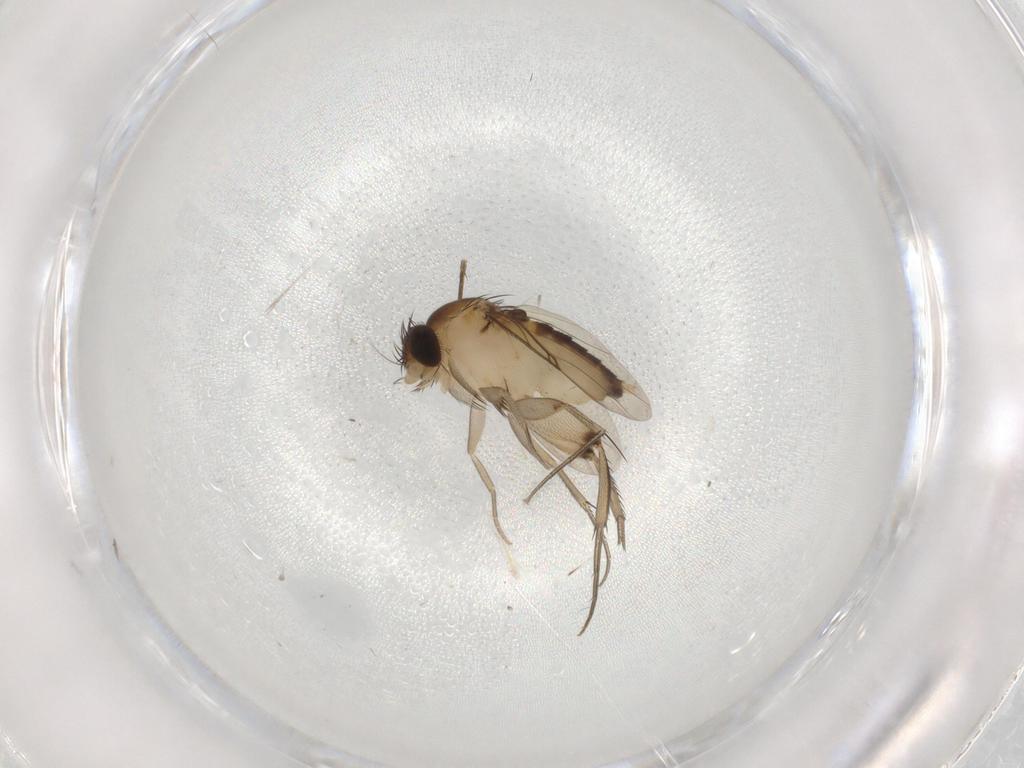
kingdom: Animalia
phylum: Arthropoda
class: Insecta
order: Diptera
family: Phoridae
